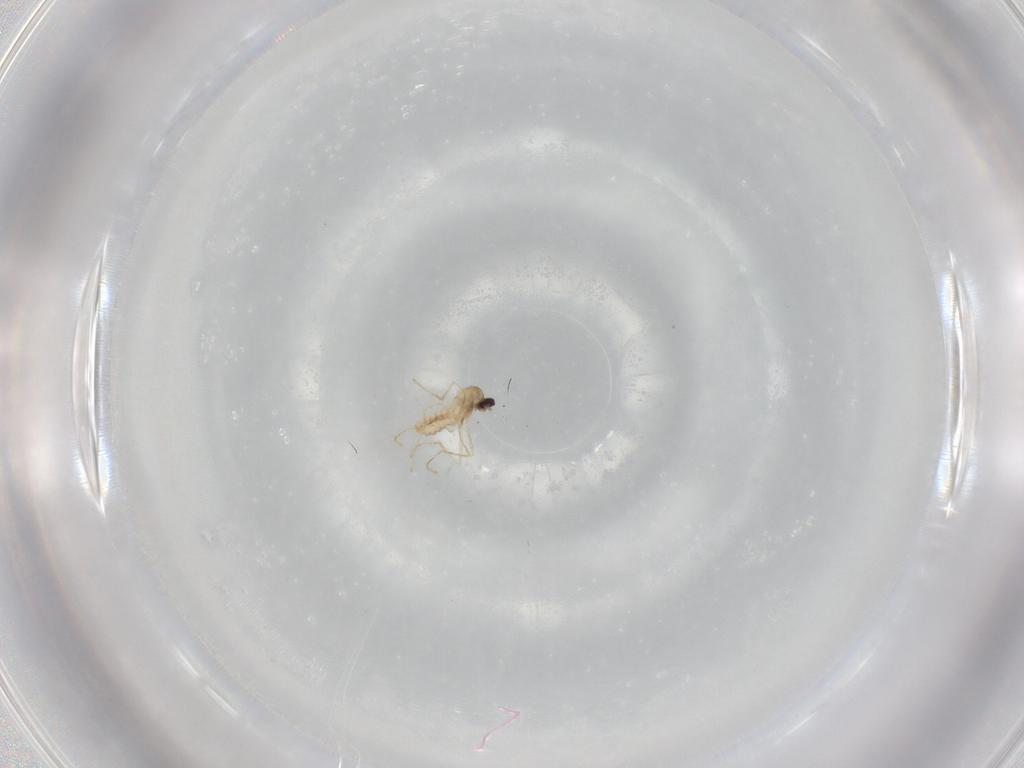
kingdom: Animalia
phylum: Arthropoda
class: Insecta
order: Diptera
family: Cecidomyiidae
